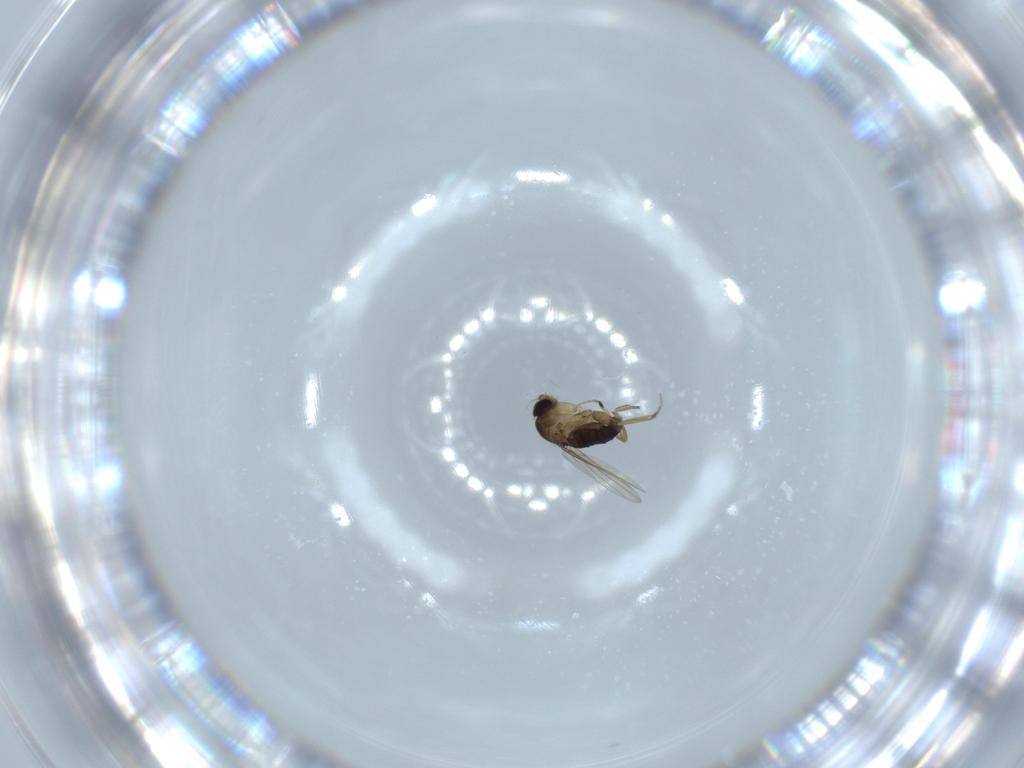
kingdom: Animalia
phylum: Arthropoda
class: Insecta
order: Diptera
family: Phoridae
